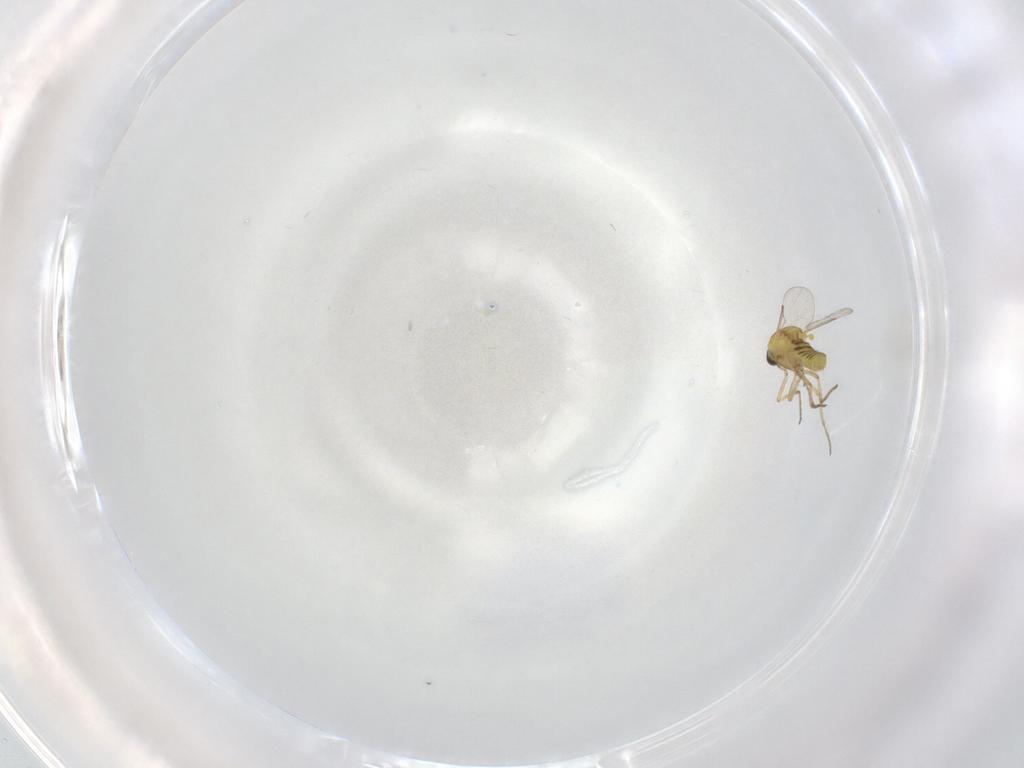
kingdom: Animalia
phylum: Arthropoda
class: Insecta
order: Diptera
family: Ceratopogonidae
